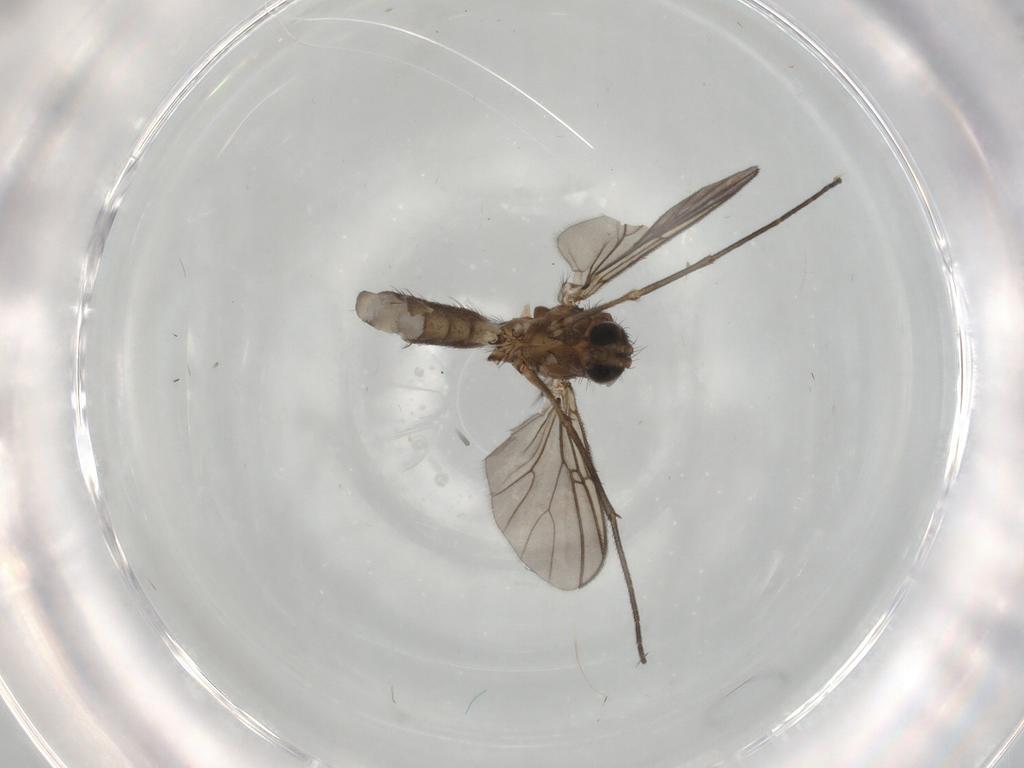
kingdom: Animalia
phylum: Arthropoda
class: Insecta
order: Diptera
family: Mycetophilidae
